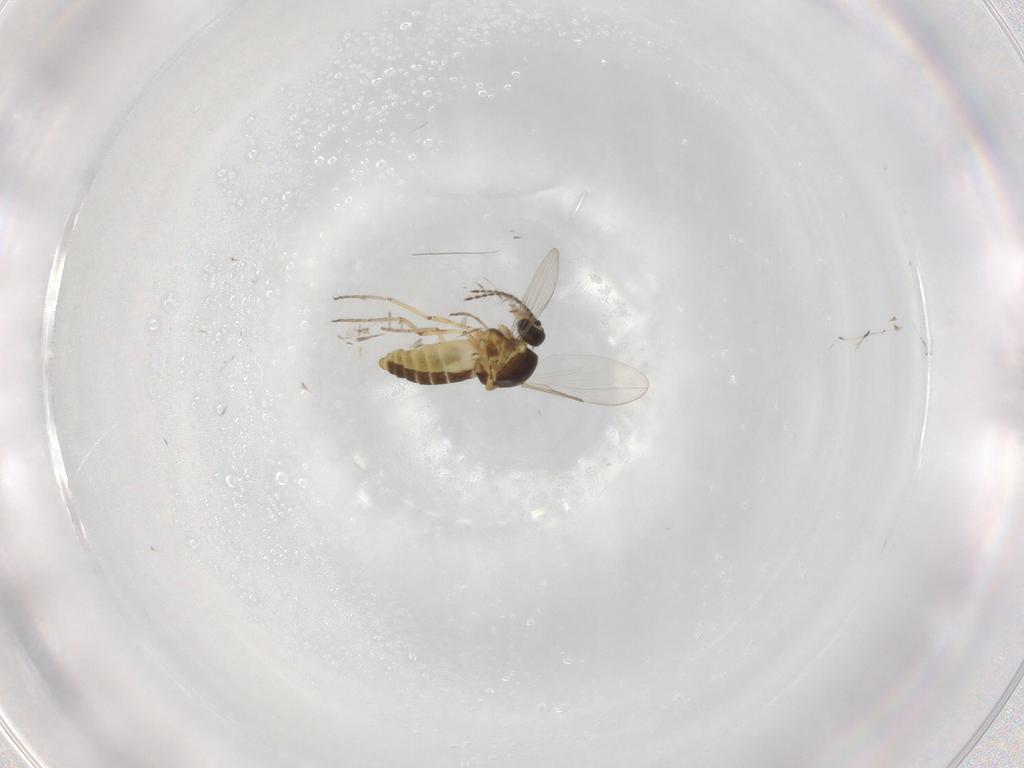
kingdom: Animalia
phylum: Arthropoda
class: Insecta
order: Diptera
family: Ceratopogonidae
